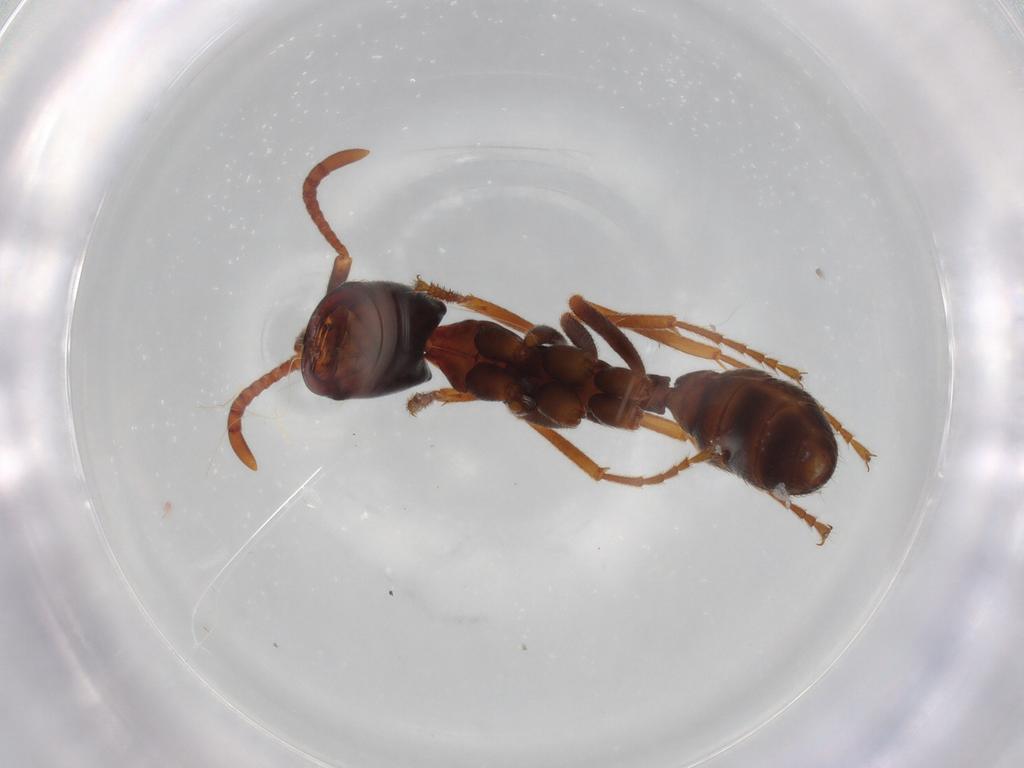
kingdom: Animalia
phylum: Arthropoda
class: Insecta
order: Hymenoptera
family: Formicidae
